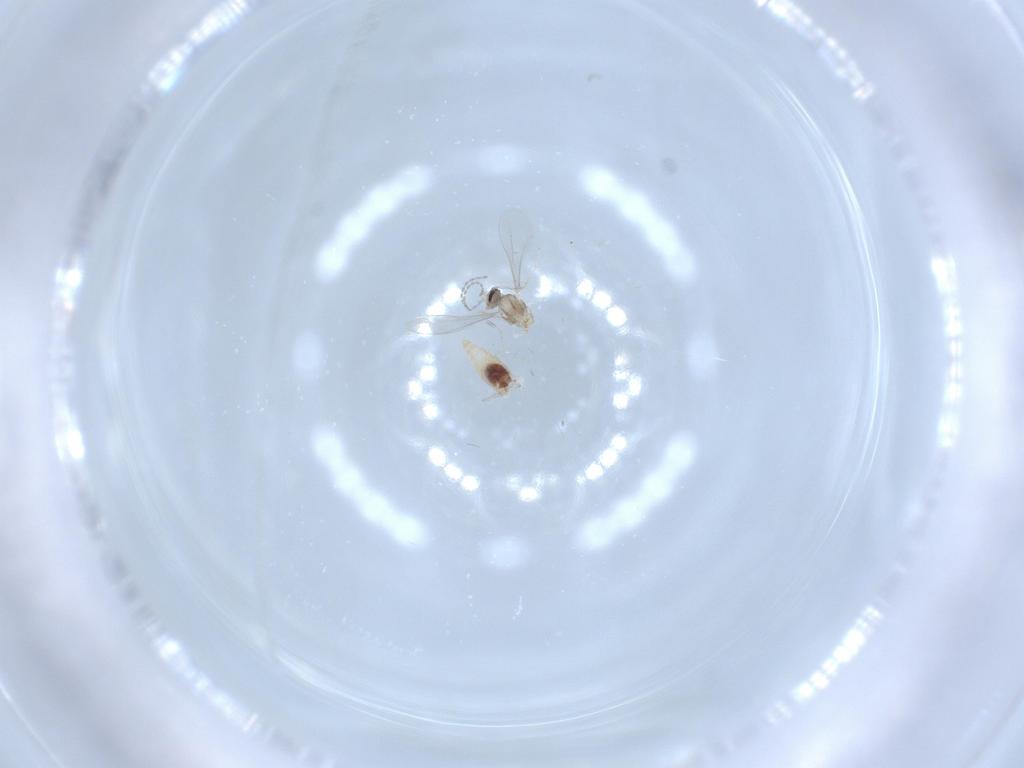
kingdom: Animalia
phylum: Arthropoda
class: Insecta
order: Diptera
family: Cecidomyiidae
